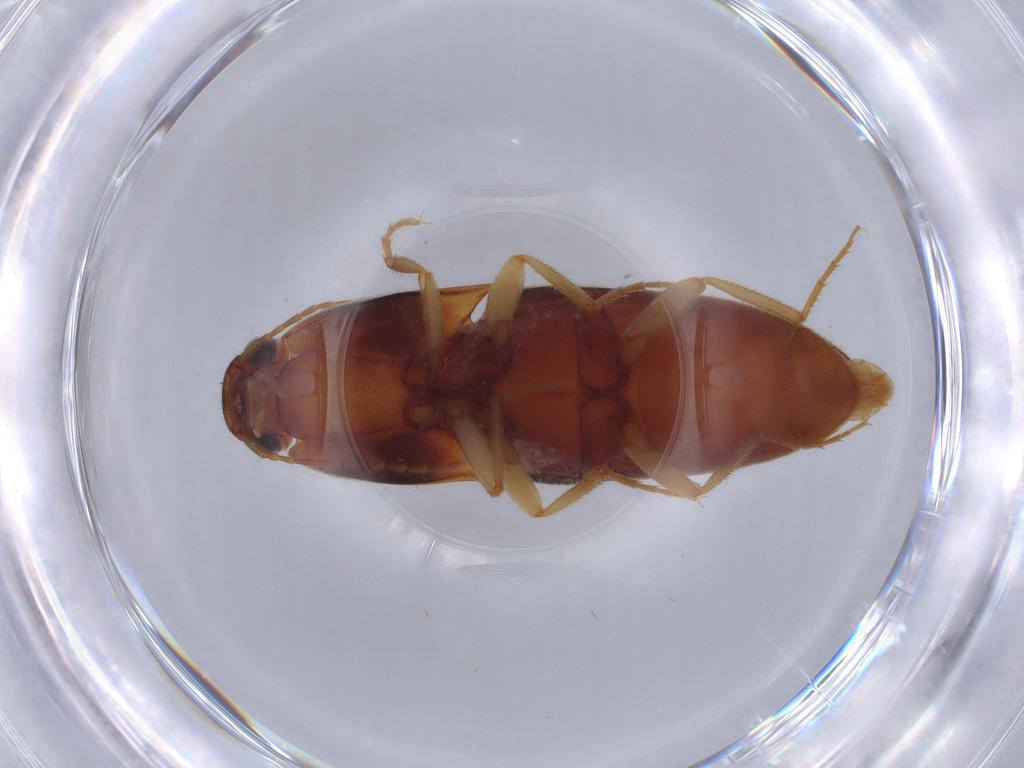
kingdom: Animalia
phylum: Arthropoda
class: Insecta
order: Coleoptera
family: Elateridae
